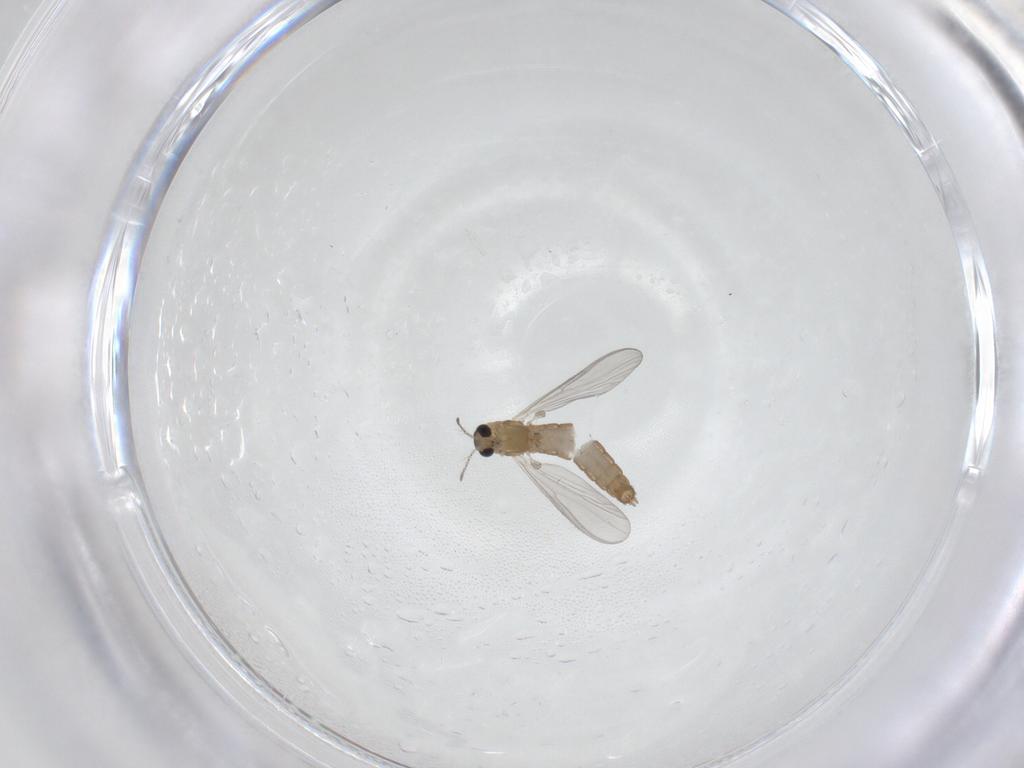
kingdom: Animalia
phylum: Arthropoda
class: Insecta
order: Diptera
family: Chironomidae
